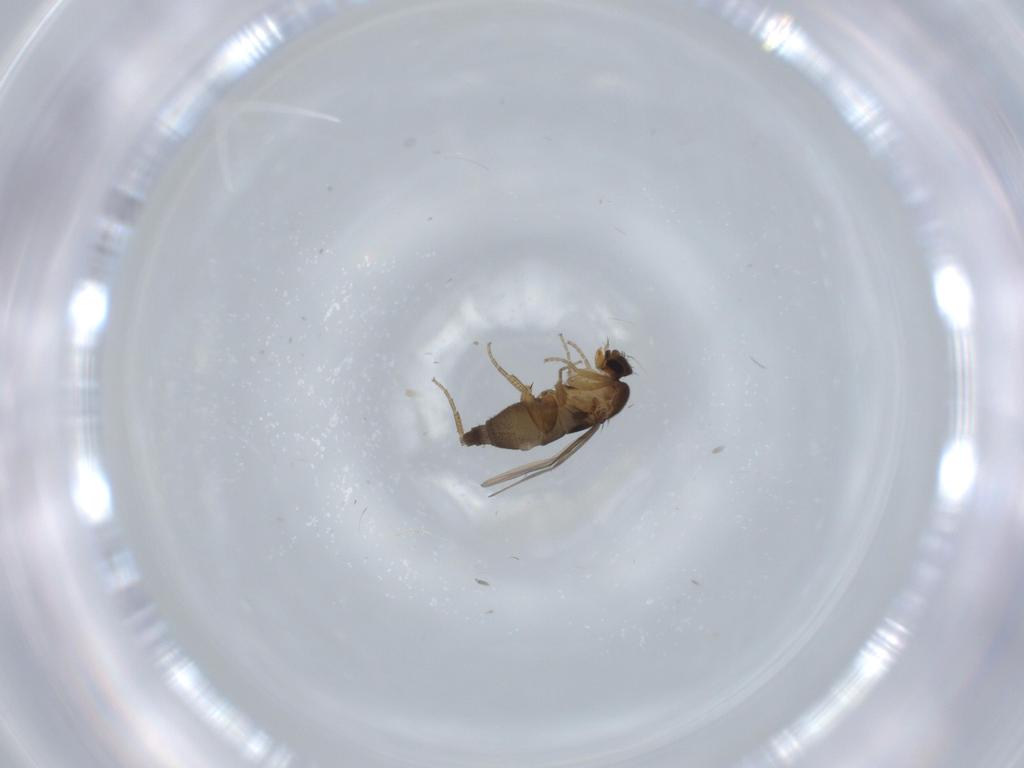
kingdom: Animalia
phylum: Arthropoda
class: Insecta
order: Diptera
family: Phoridae
